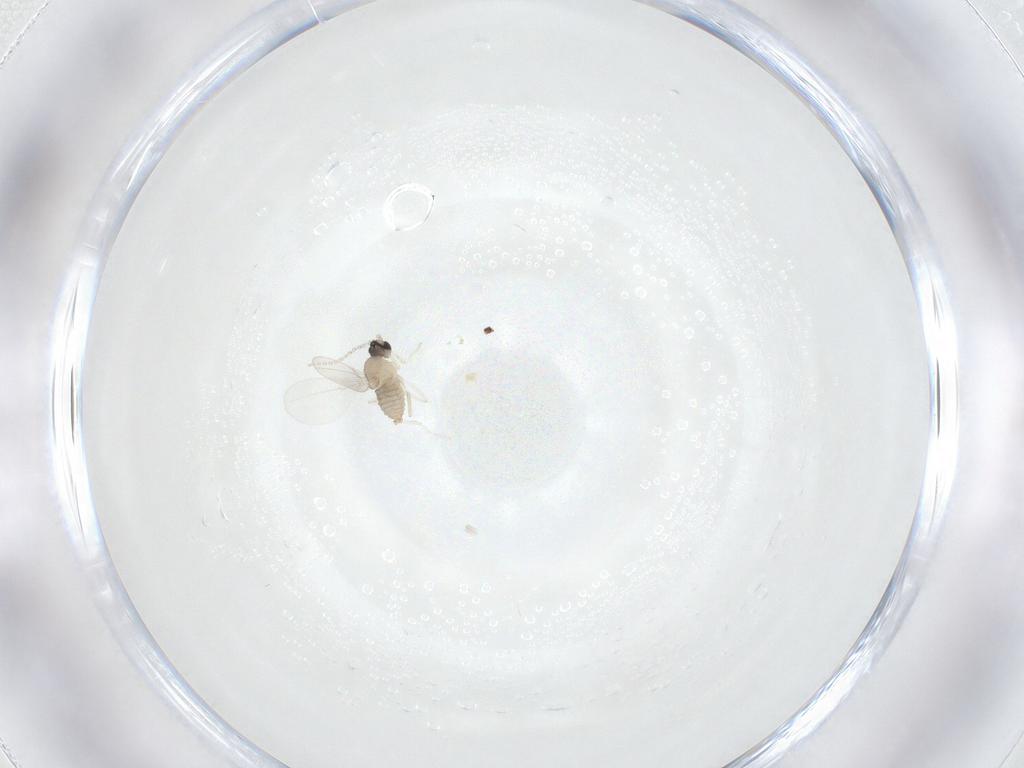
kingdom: Animalia
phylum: Arthropoda
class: Insecta
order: Diptera
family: Cecidomyiidae
